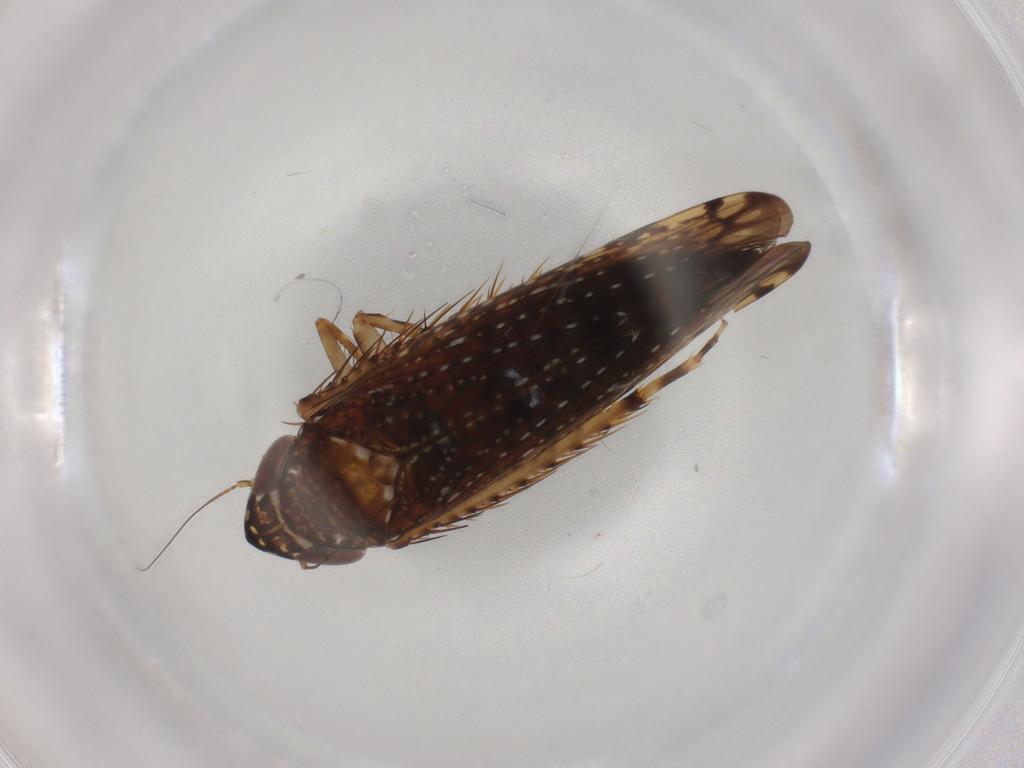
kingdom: Animalia
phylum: Arthropoda
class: Insecta
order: Hemiptera
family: Cicadellidae
